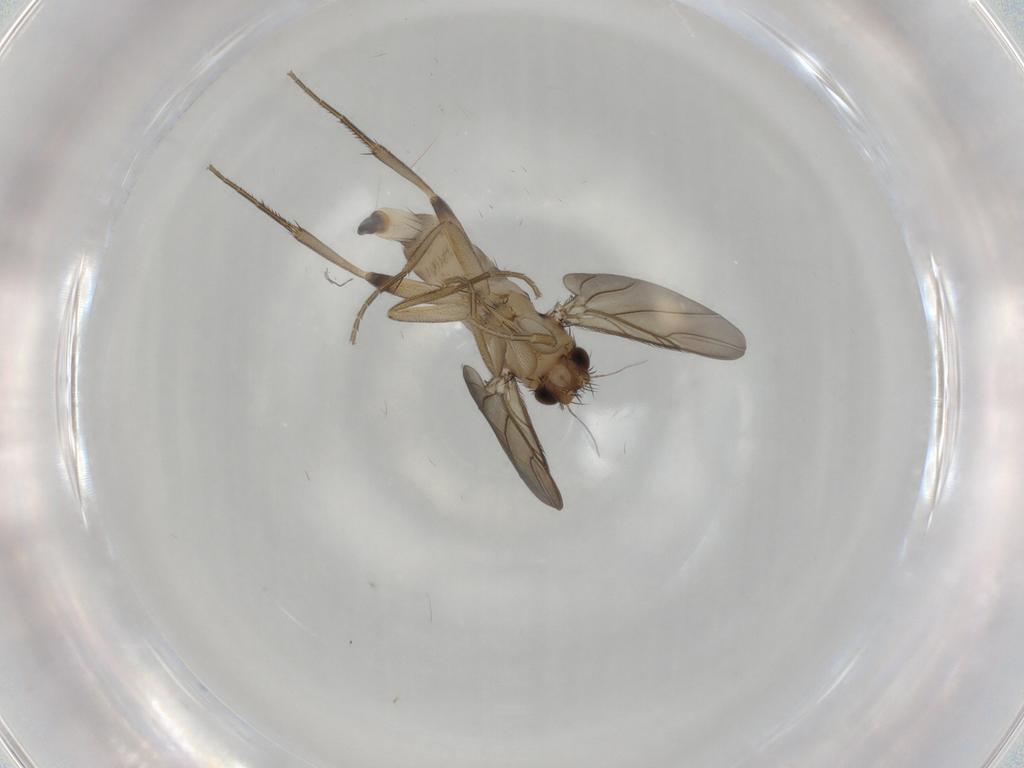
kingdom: Animalia
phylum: Arthropoda
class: Insecta
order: Diptera
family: Phoridae
